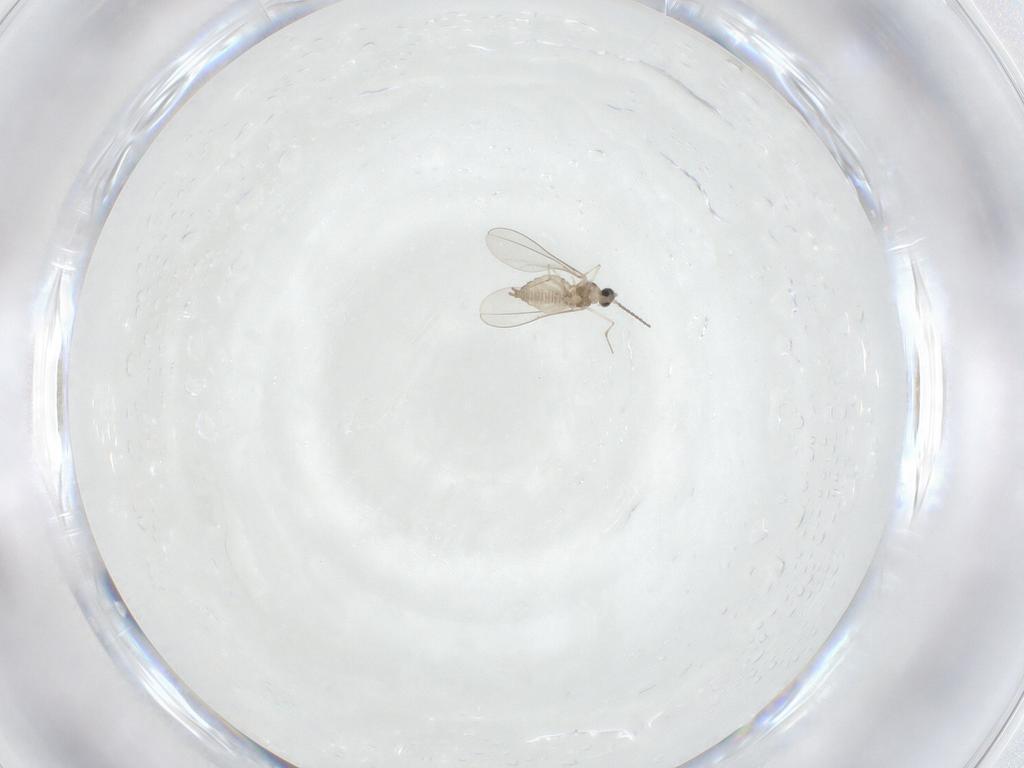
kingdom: Animalia
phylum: Arthropoda
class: Insecta
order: Diptera
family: Cecidomyiidae
